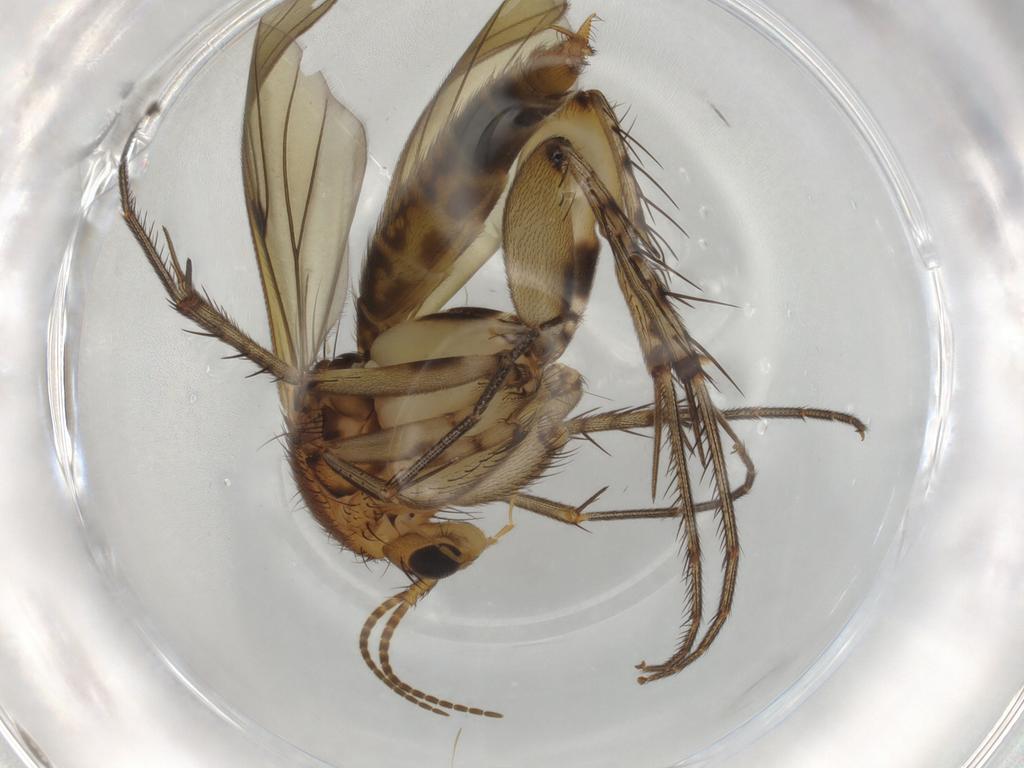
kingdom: Animalia
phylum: Arthropoda
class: Insecta
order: Diptera
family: Chironomidae
